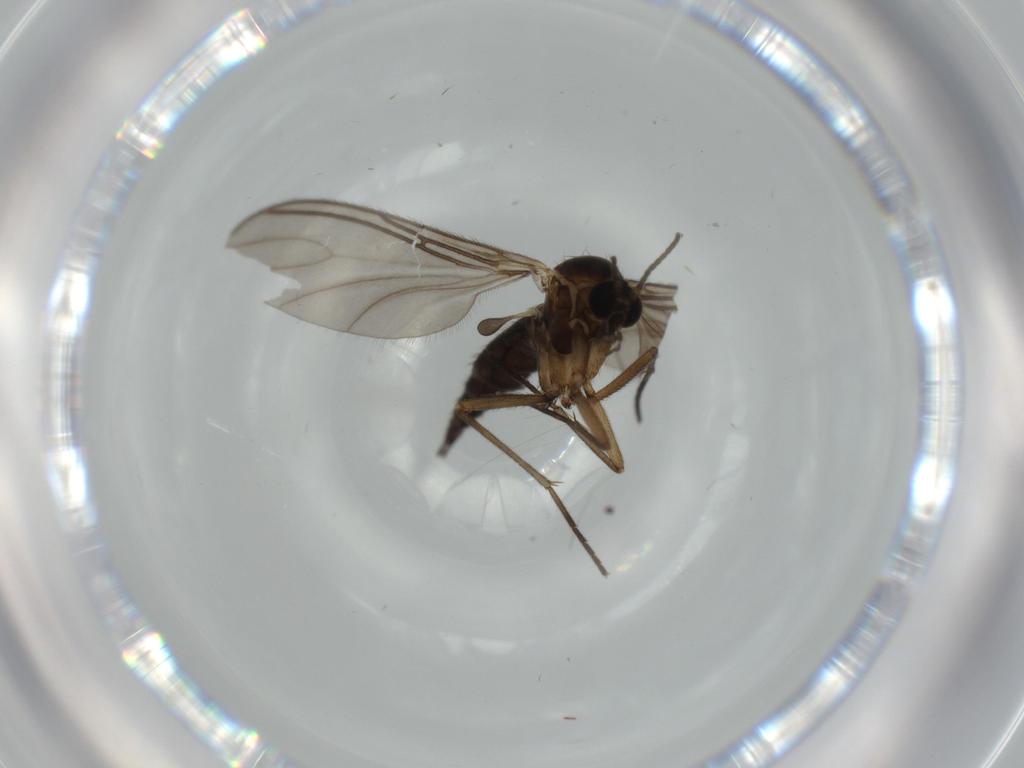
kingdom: Animalia
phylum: Arthropoda
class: Insecta
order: Diptera
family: Sciaridae
